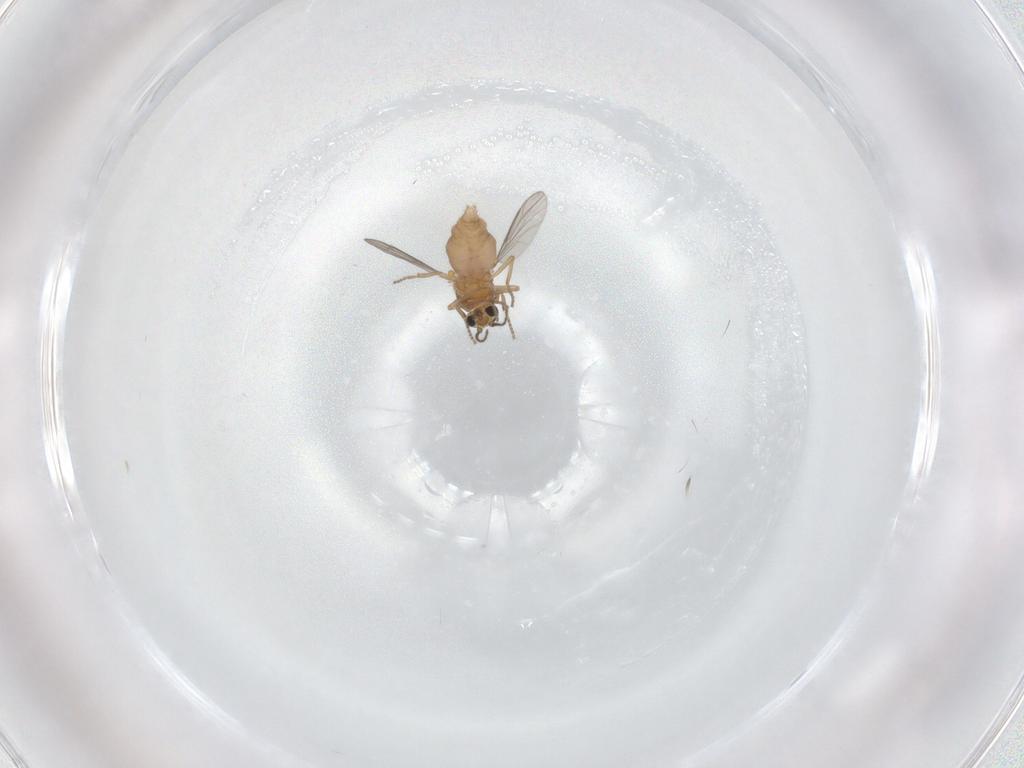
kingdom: Animalia
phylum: Arthropoda
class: Insecta
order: Diptera
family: Ceratopogonidae
